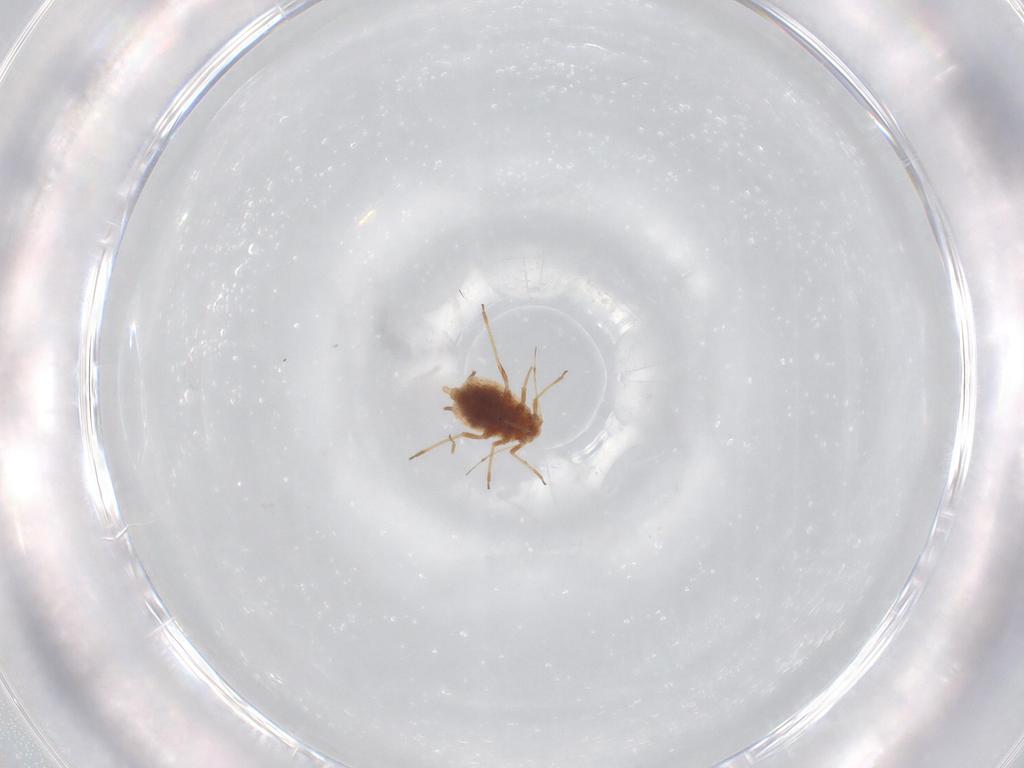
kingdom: Animalia
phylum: Arthropoda
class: Insecta
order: Hemiptera
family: Aphididae
